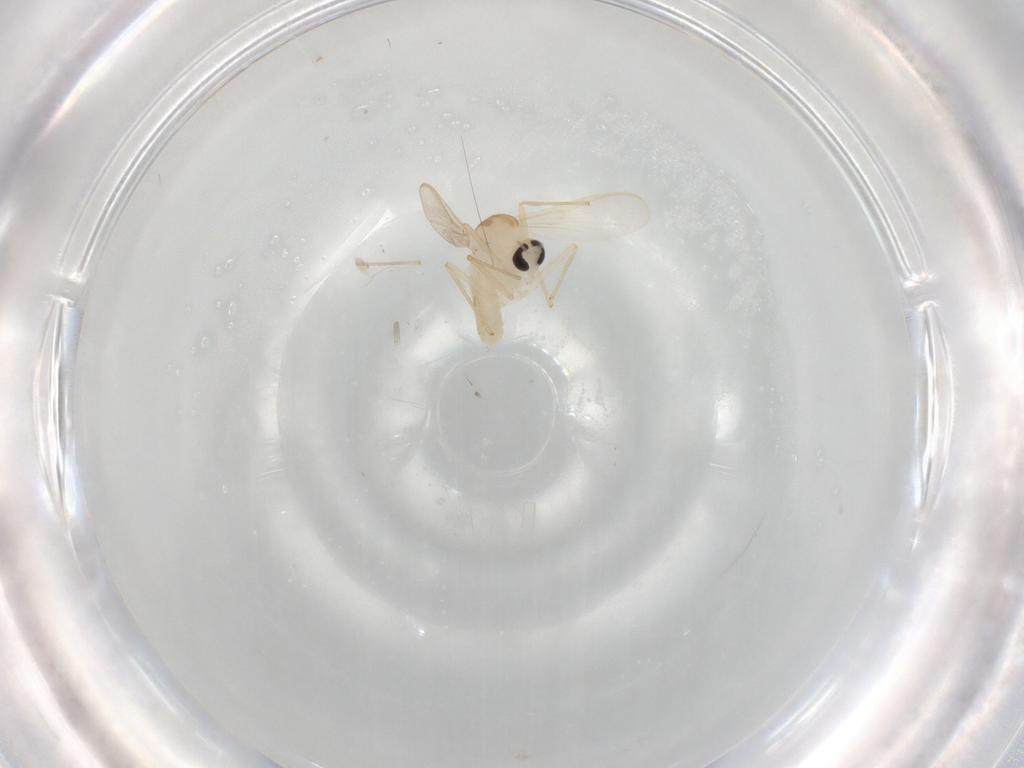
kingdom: Animalia
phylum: Arthropoda
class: Insecta
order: Diptera
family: Chironomidae
